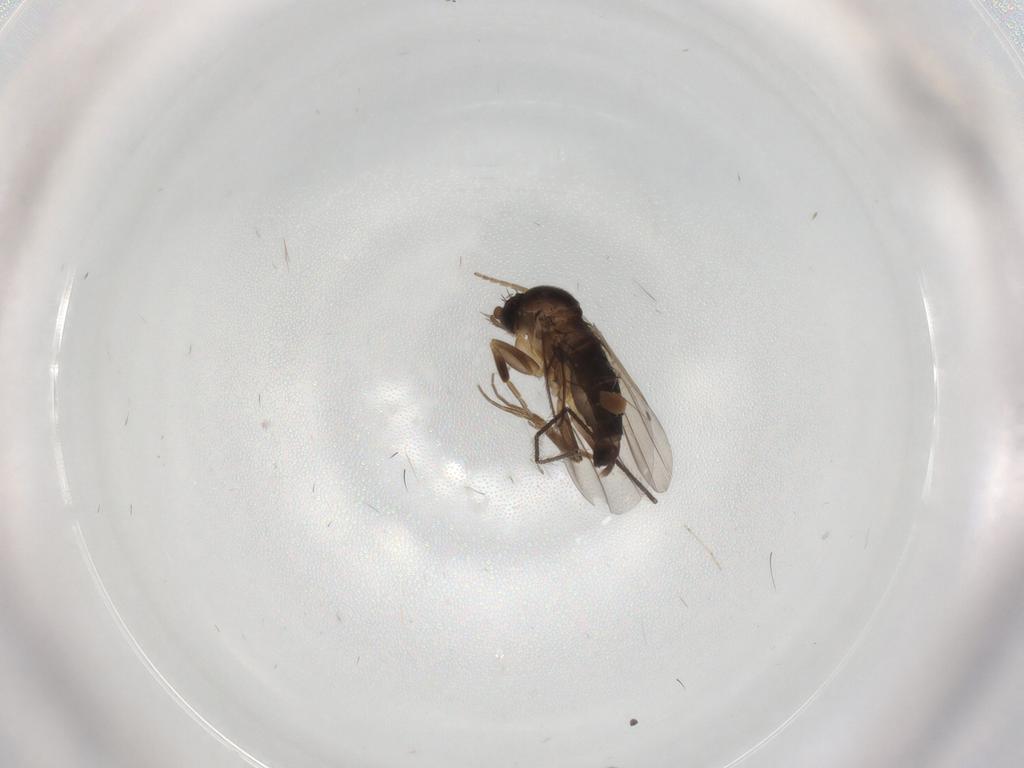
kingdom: Animalia
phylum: Arthropoda
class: Insecta
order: Diptera
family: Phoridae
